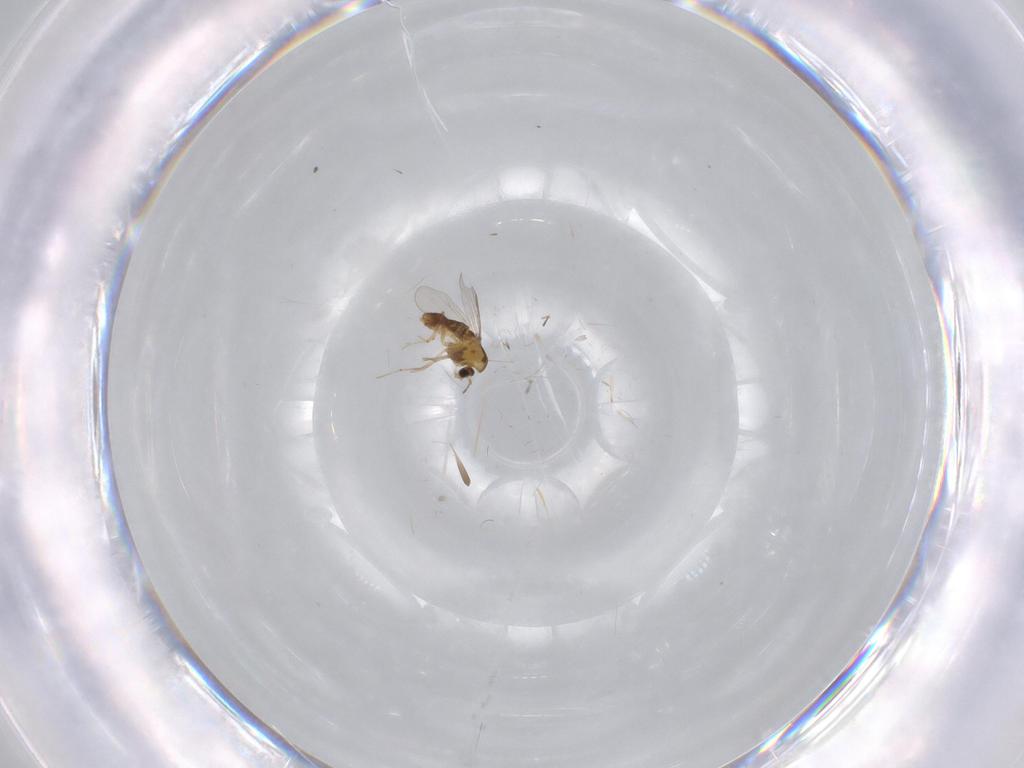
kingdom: Animalia
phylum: Arthropoda
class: Insecta
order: Diptera
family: Chironomidae
